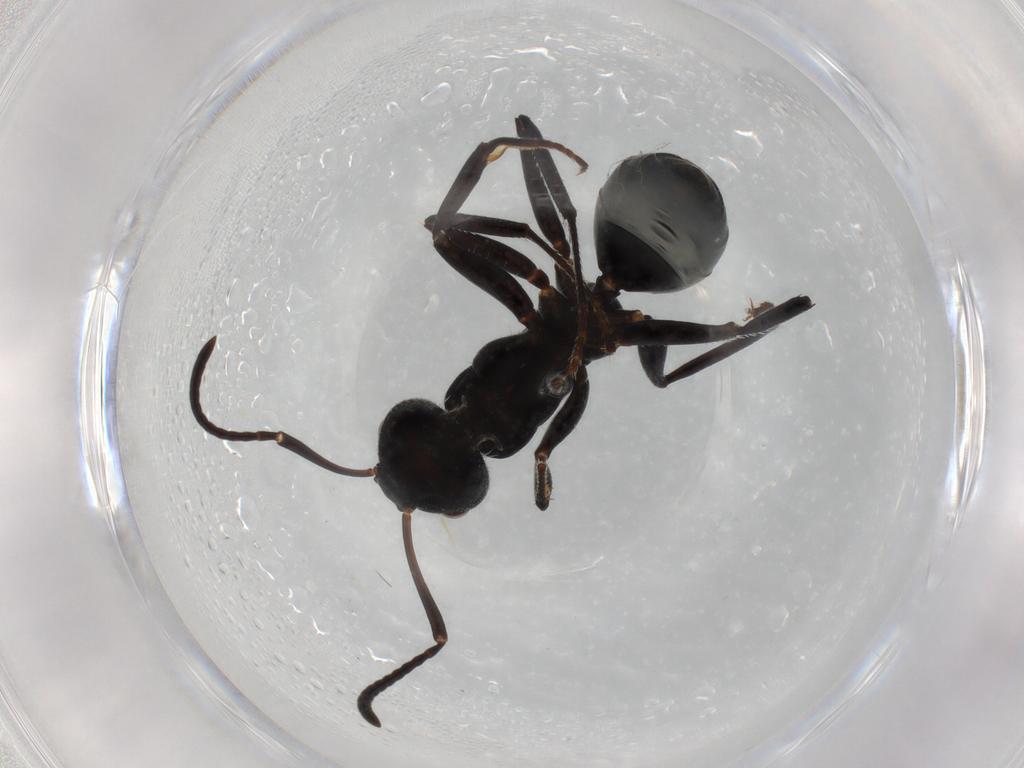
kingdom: Animalia
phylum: Arthropoda
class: Insecta
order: Hymenoptera
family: Formicidae
